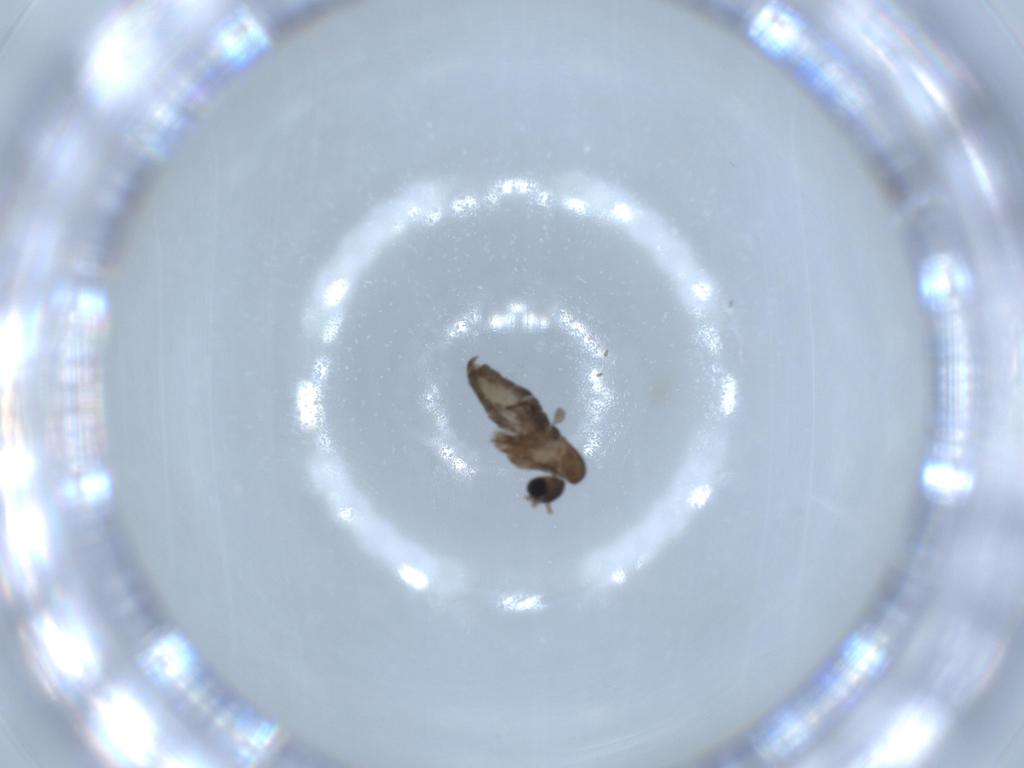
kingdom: Animalia
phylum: Arthropoda
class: Insecta
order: Diptera
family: Psychodidae
